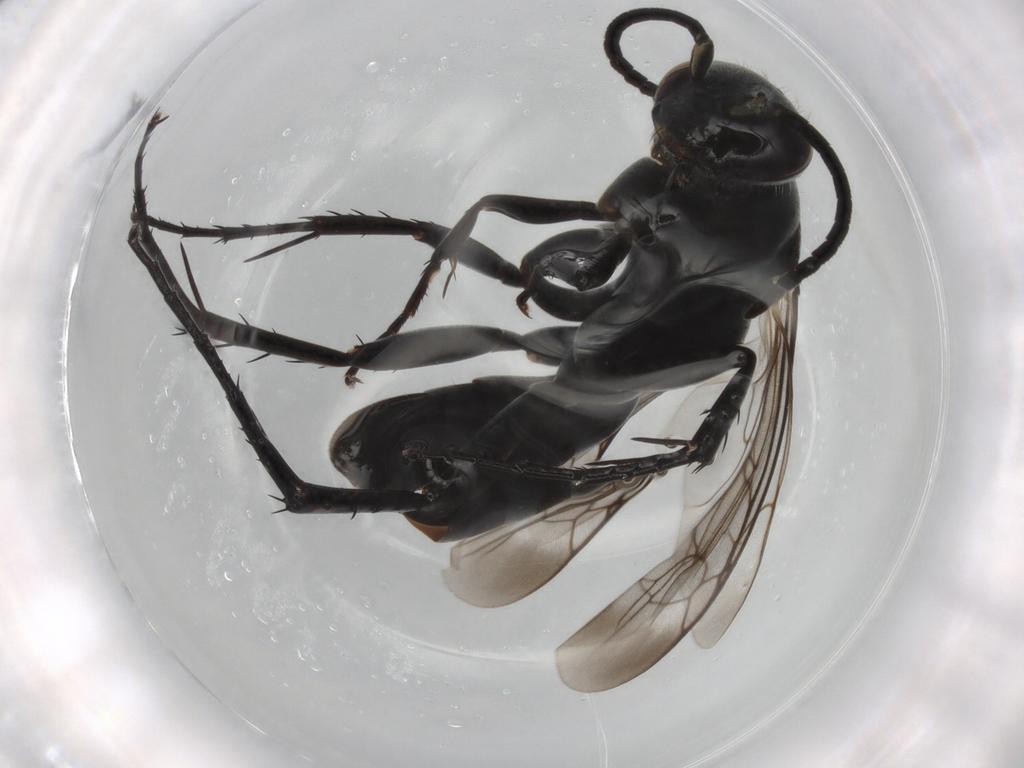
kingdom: Animalia
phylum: Arthropoda
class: Insecta
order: Hymenoptera
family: Pompilidae
